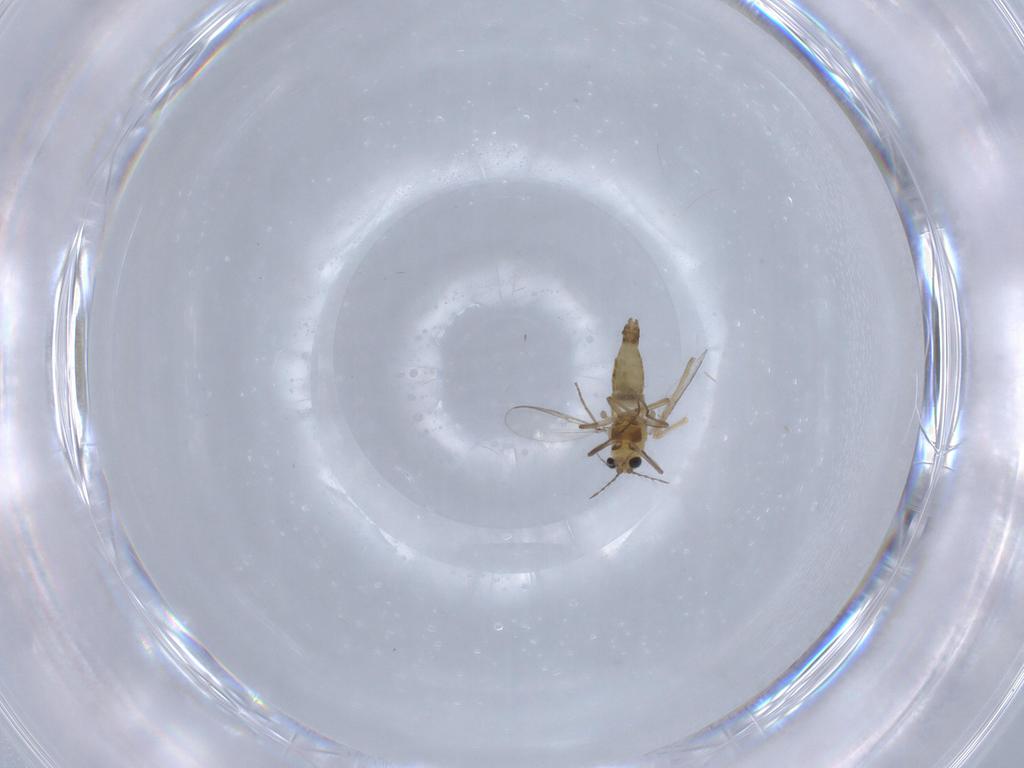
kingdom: Animalia
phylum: Arthropoda
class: Insecta
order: Diptera
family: Chironomidae
